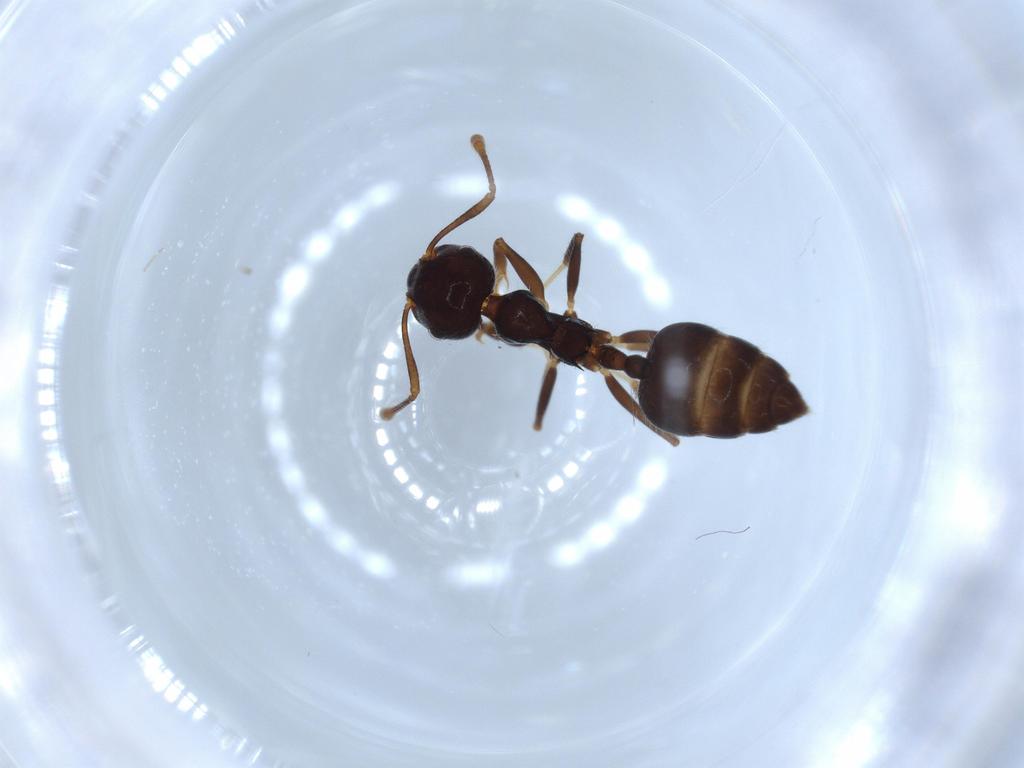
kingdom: Animalia
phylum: Arthropoda
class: Insecta
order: Hymenoptera
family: Formicidae
